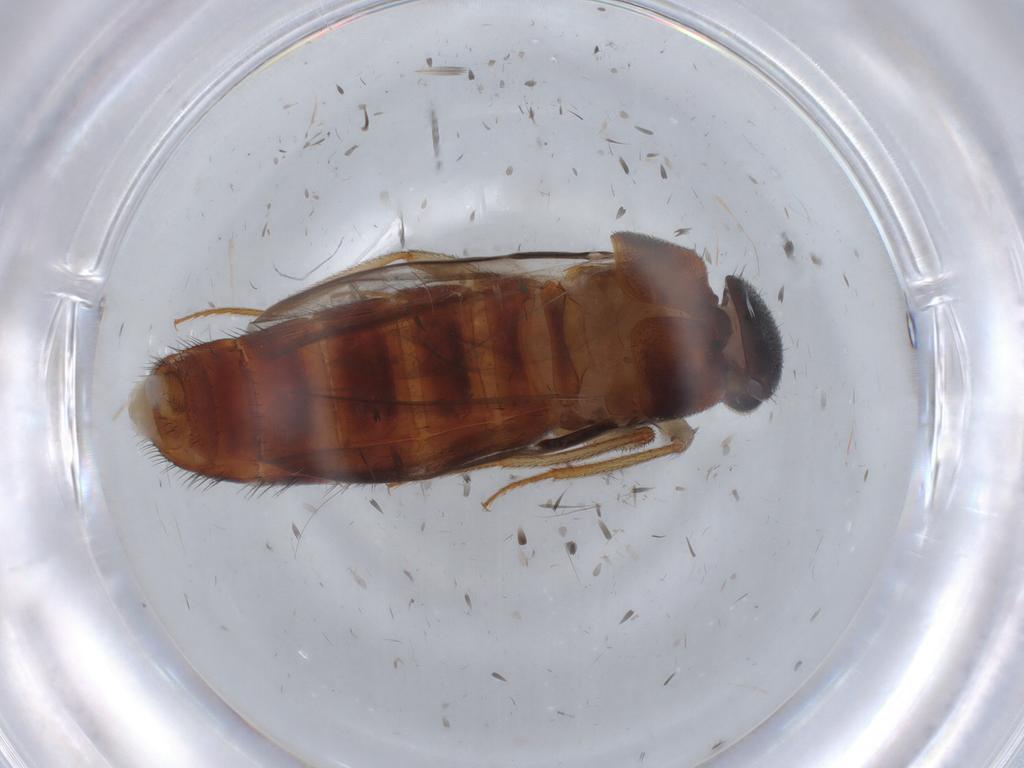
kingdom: Animalia
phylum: Arthropoda
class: Insecta
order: Coleoptera
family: Staphylinidae
